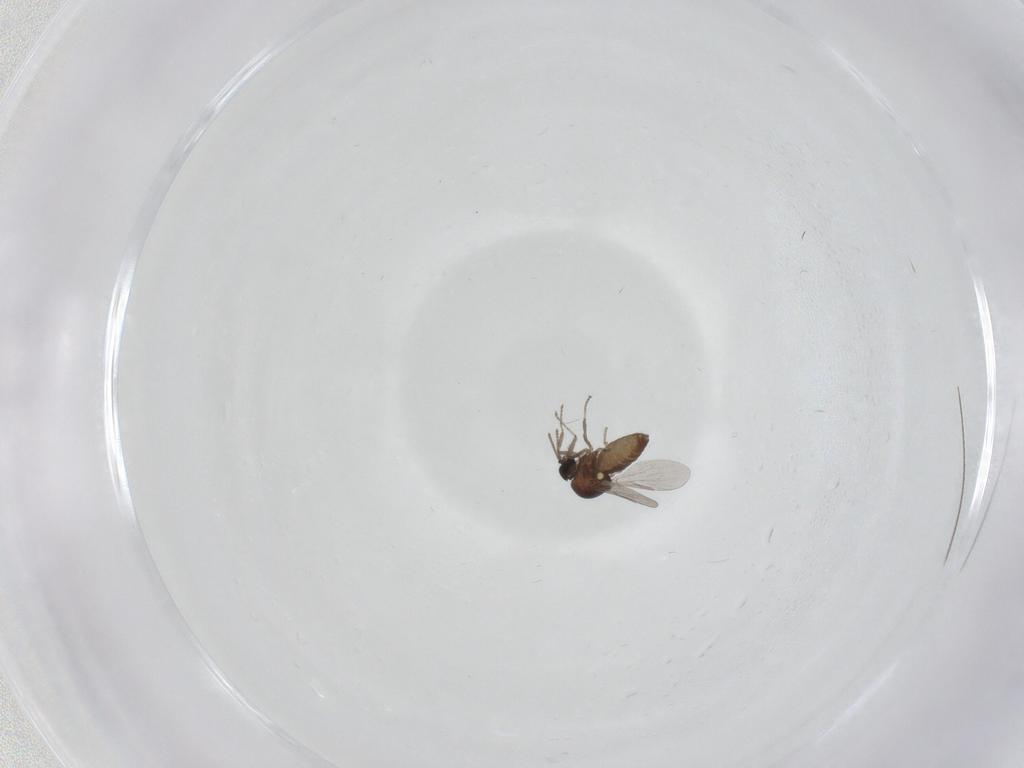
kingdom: Animalia
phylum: Arthropoda
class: Insecta
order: Diptera
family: Ceratopogonidae
